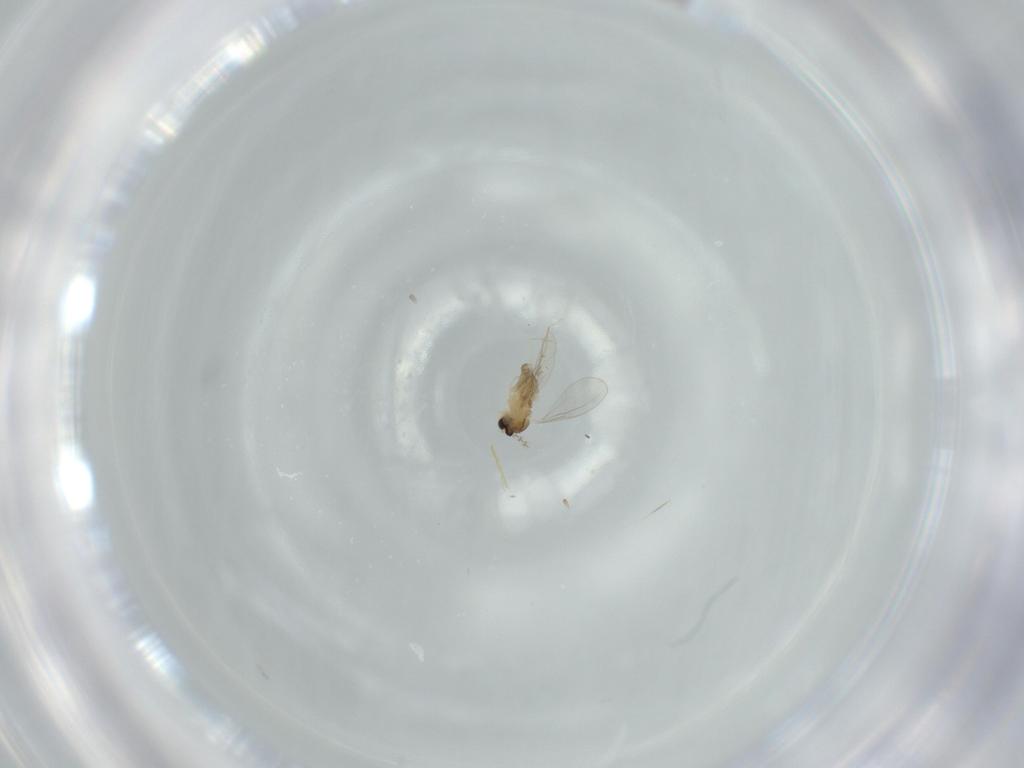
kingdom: Animalia
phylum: Arthropoda
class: Insecta
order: Diptera
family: Cecidomyiidae
